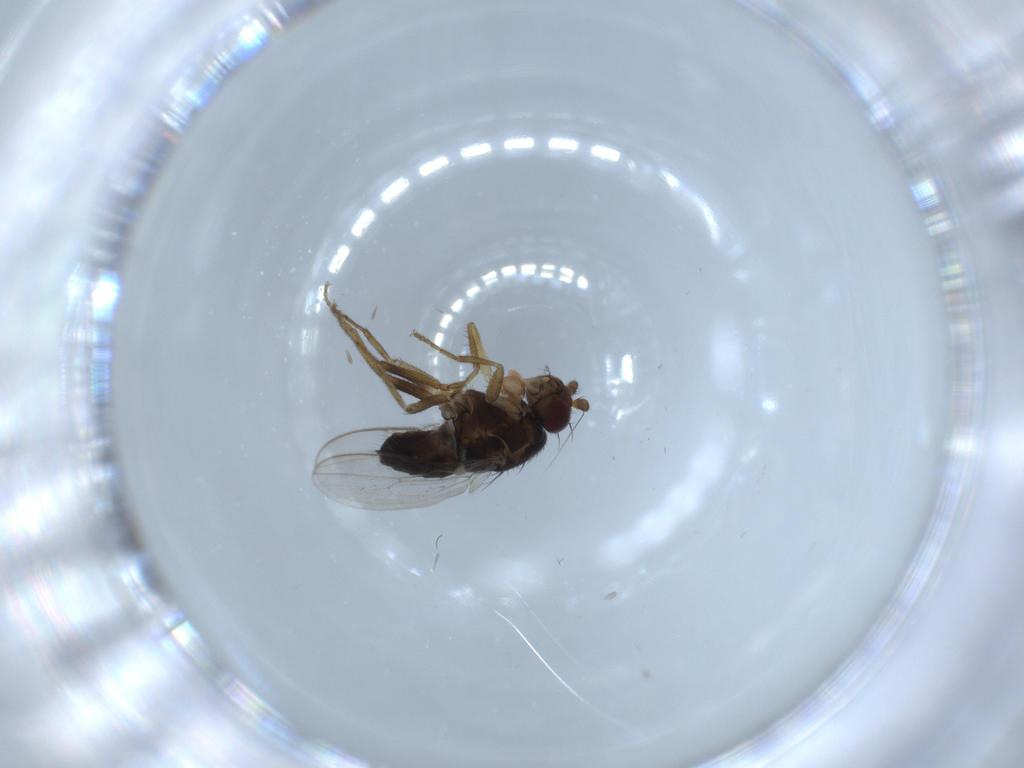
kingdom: Animalia
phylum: Arthropoda
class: Insecta
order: Diptera
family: Sphaeroceridae
